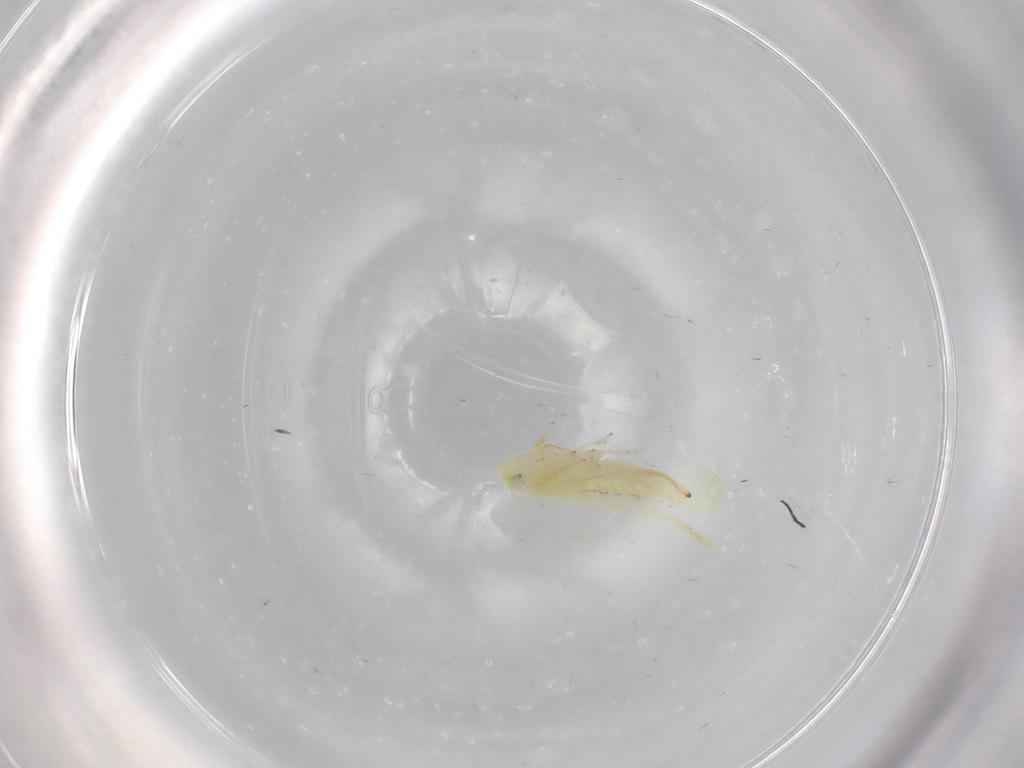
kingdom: Animalia
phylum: Arthropoda
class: Insecta
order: Hemiptera
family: Cicadellidae
